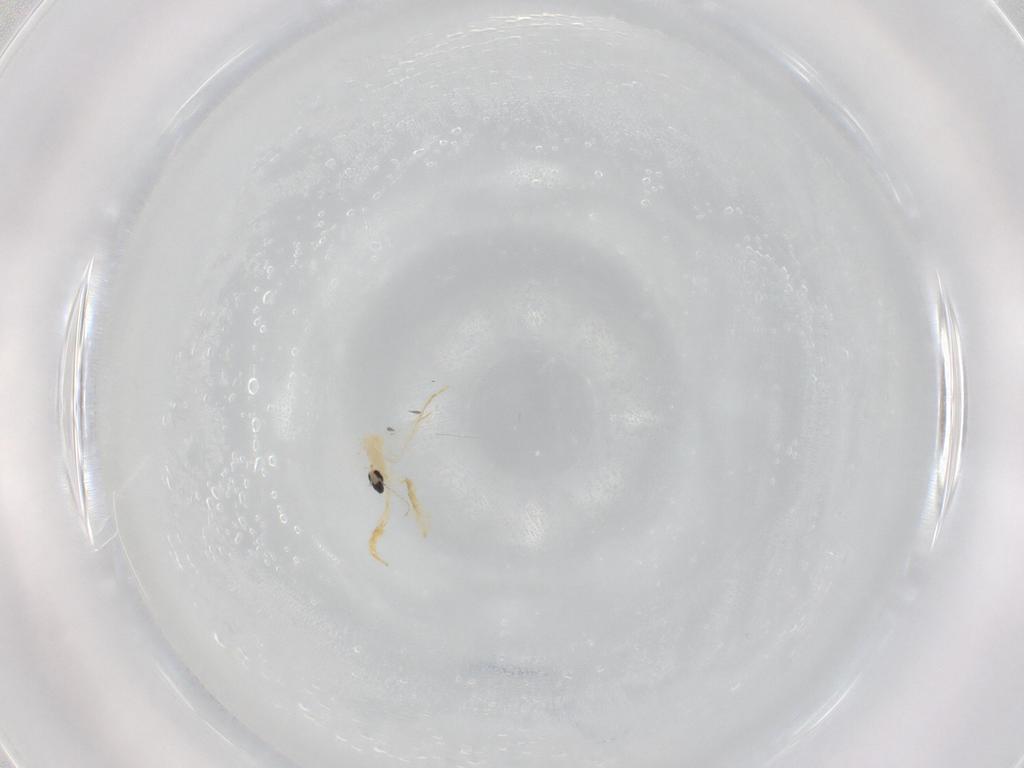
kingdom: Animalia
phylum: Arthropoda
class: Insecta
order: Diptera
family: Cecidomyiidae
